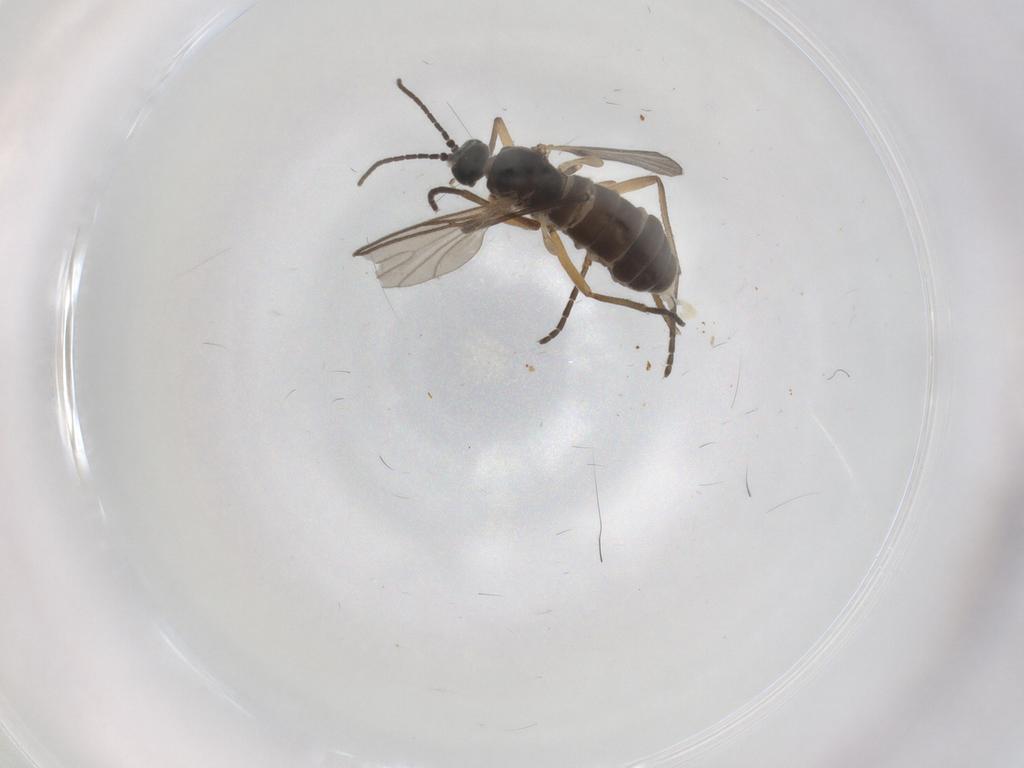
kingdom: Animalia
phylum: Arthropoda
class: Insecta
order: Diptera
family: Sciaridae
